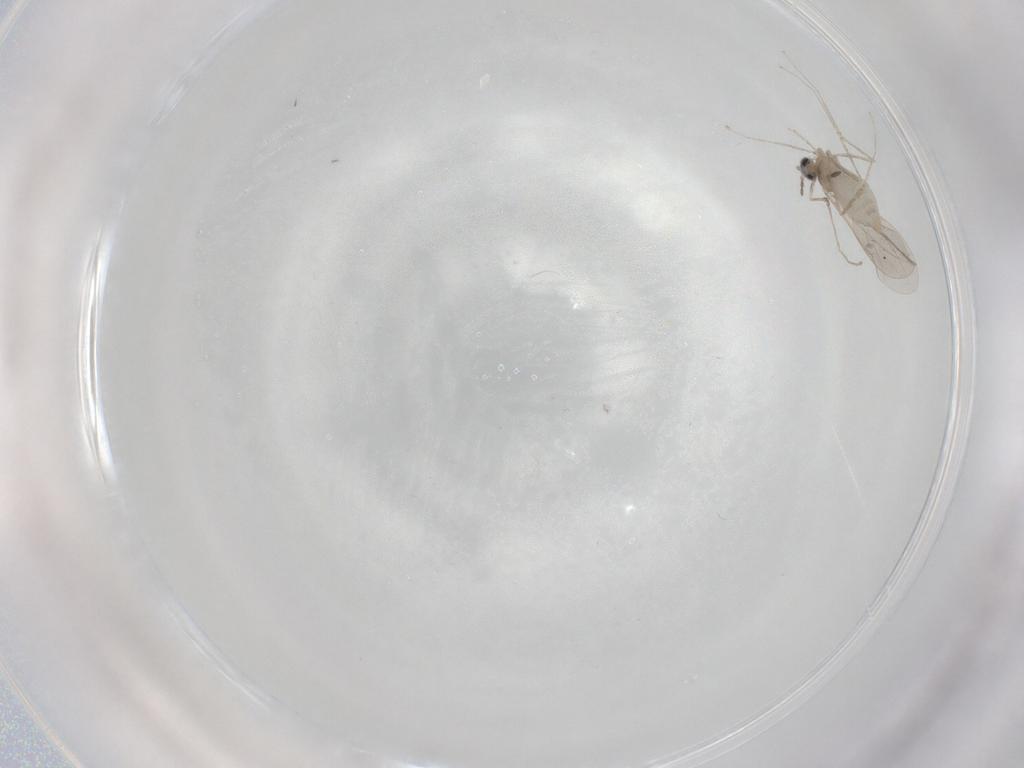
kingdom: Animalia
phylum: Arthropoda
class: Insecta
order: Diptera
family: Cecidomyiidae
